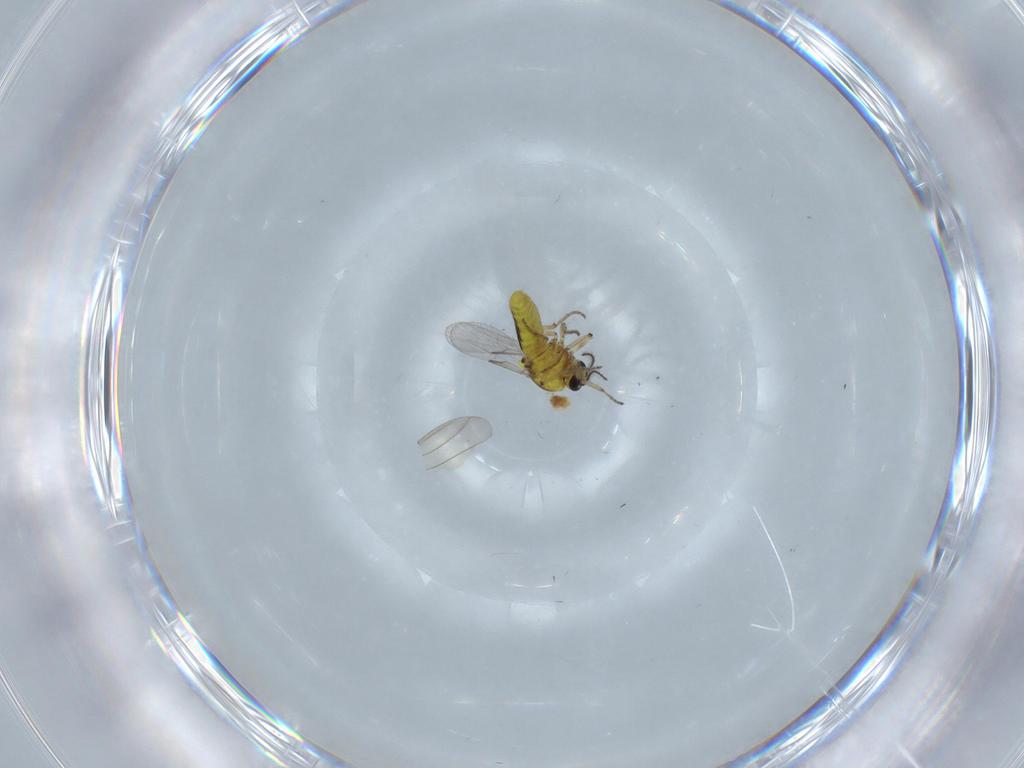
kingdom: Animalia
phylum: Arthropoda
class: Insecta
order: Diptera
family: Ceratopogonidae
